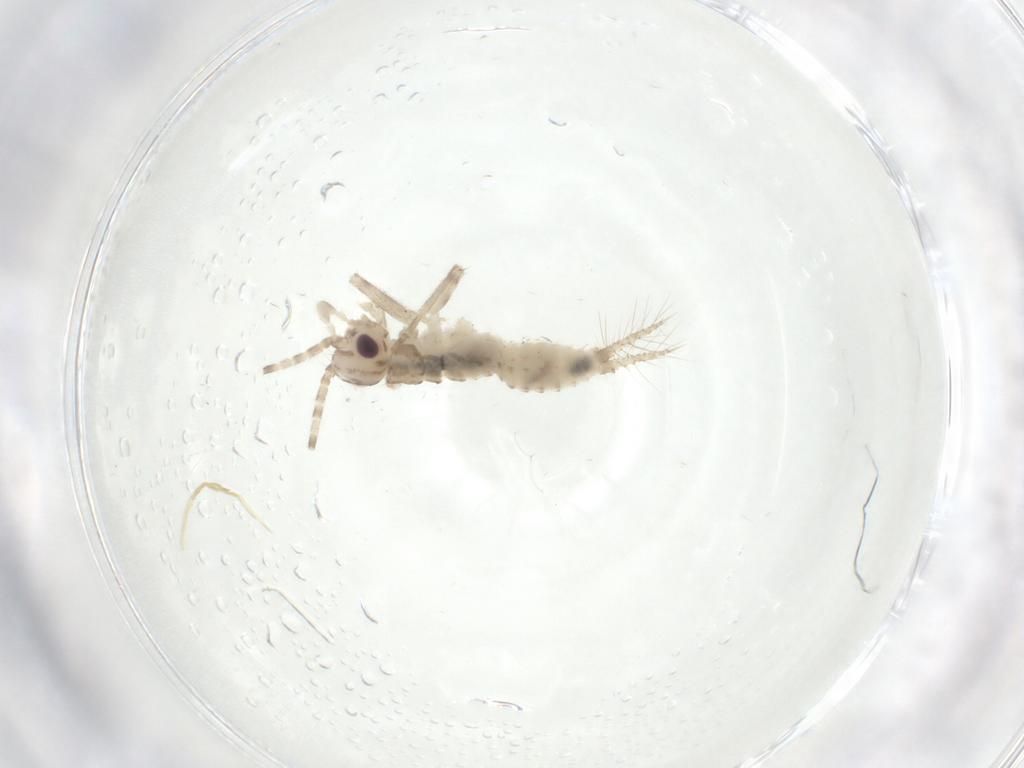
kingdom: Animalia
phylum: Arthropoda
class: Insecta
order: Orthoptera
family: Trigonidiidae
